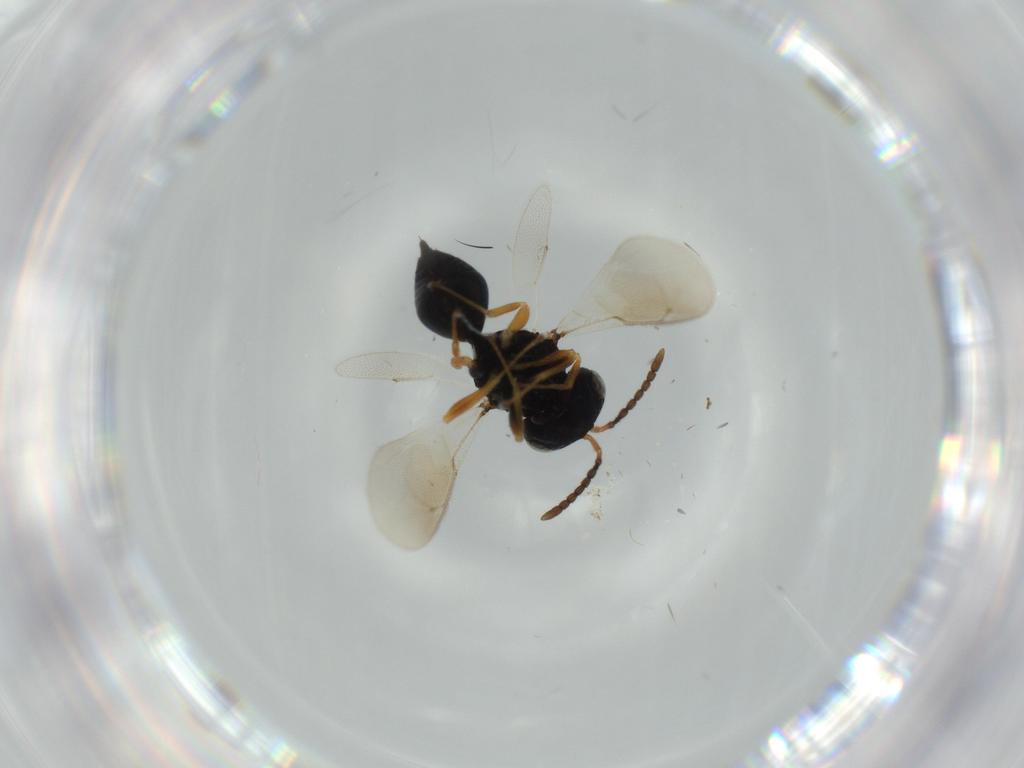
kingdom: Animalia
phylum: Arthropoda
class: Insecta
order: Hymenoptera
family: Pteromalidae
